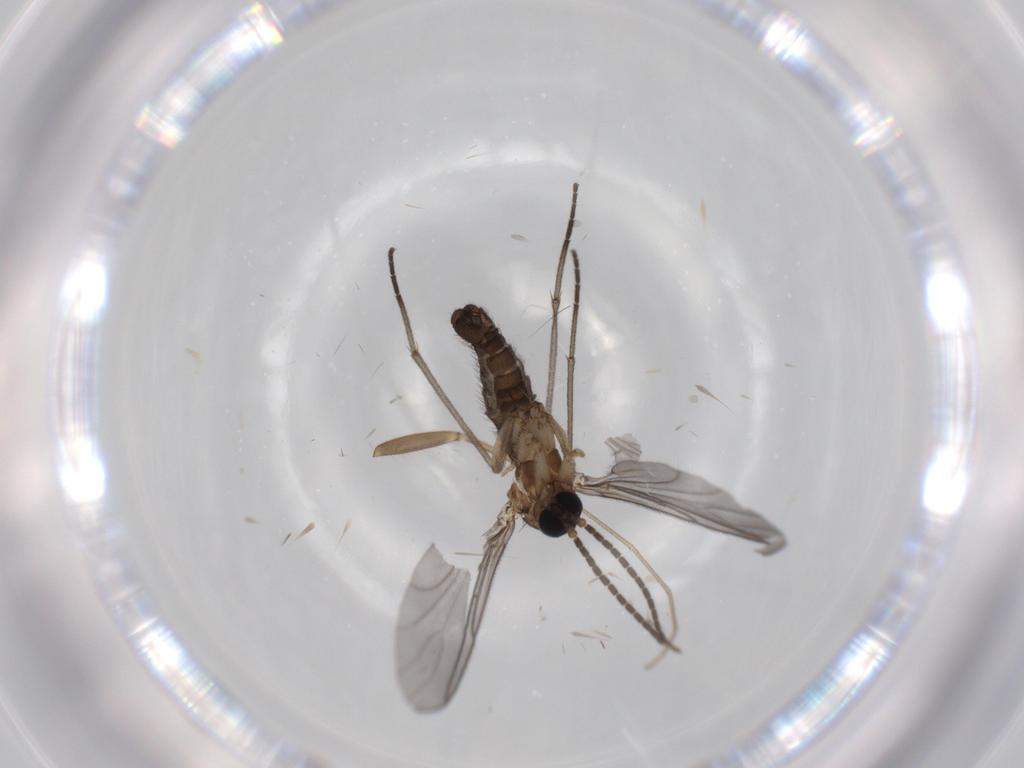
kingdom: Animalia
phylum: Arthropoda
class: Insecta
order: Diptera
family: Sciaridae
